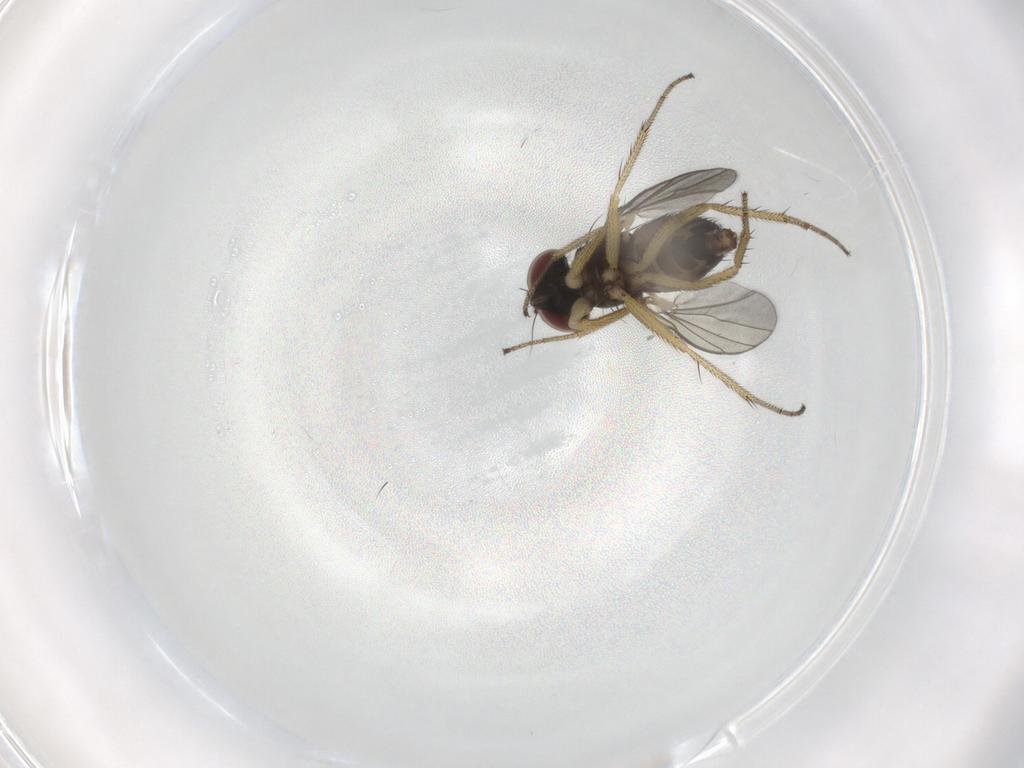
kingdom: Animalia
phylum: Arthropoda
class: Insecta
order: Diptera
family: Dolichopodidae
